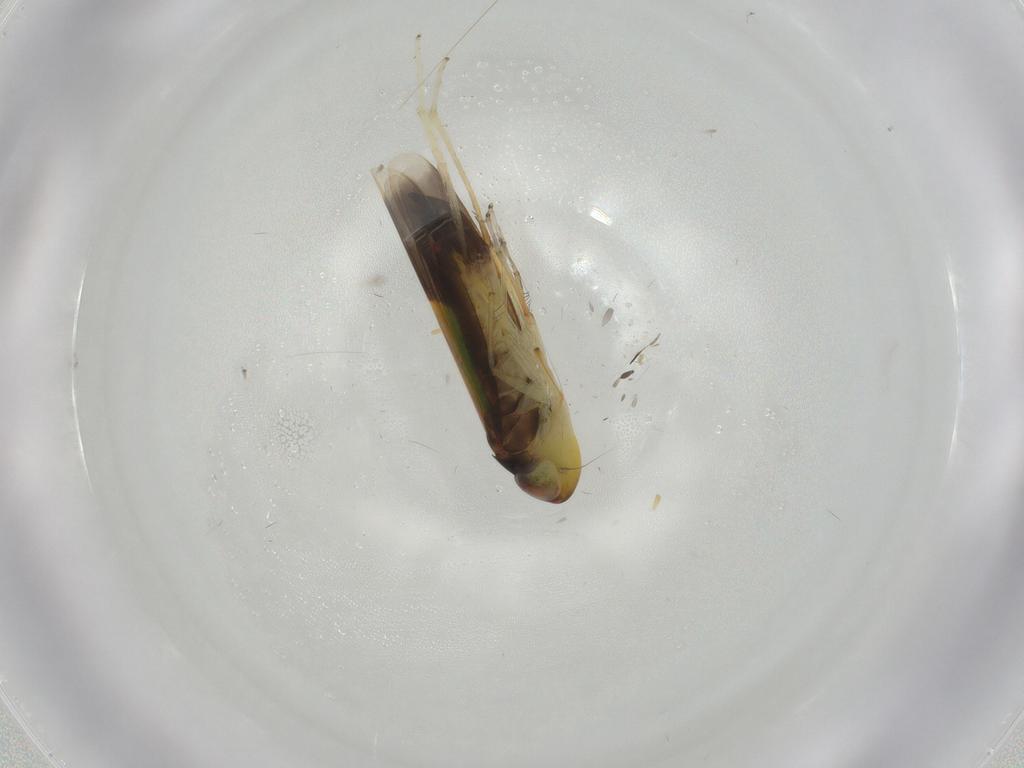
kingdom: Animalia
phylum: Arthropoda
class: Insecta
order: Hemiptera
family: Cicadellidae
